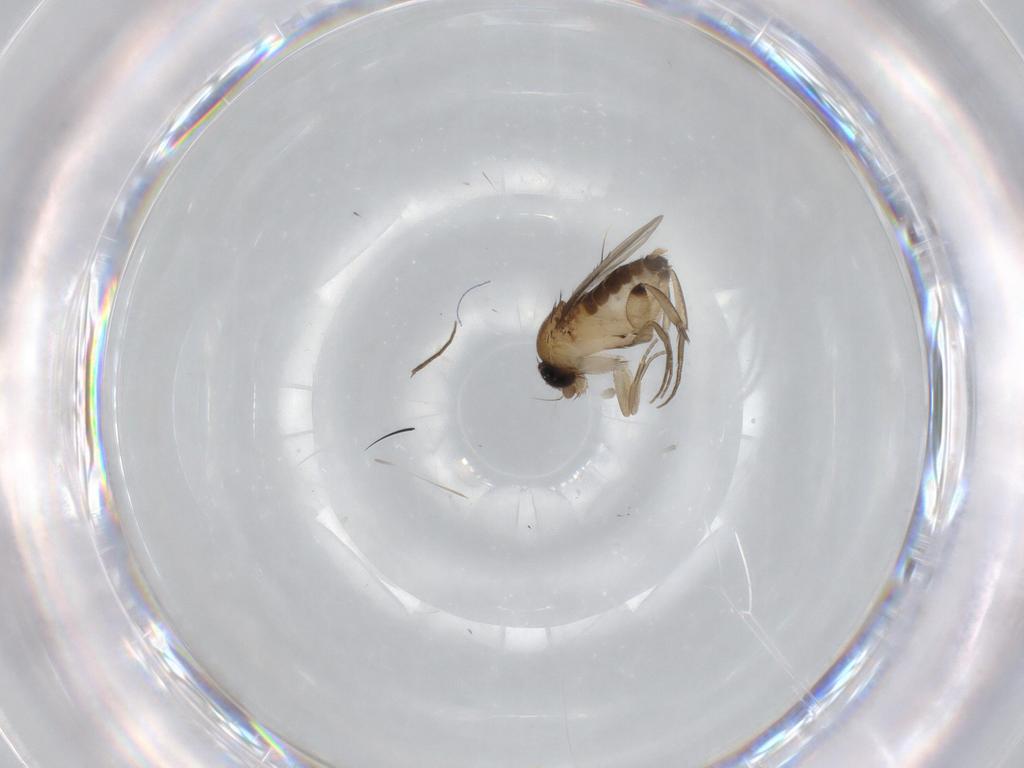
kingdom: Animalia
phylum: Arthropoda
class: Insecta
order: Diptera
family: Phoridae
